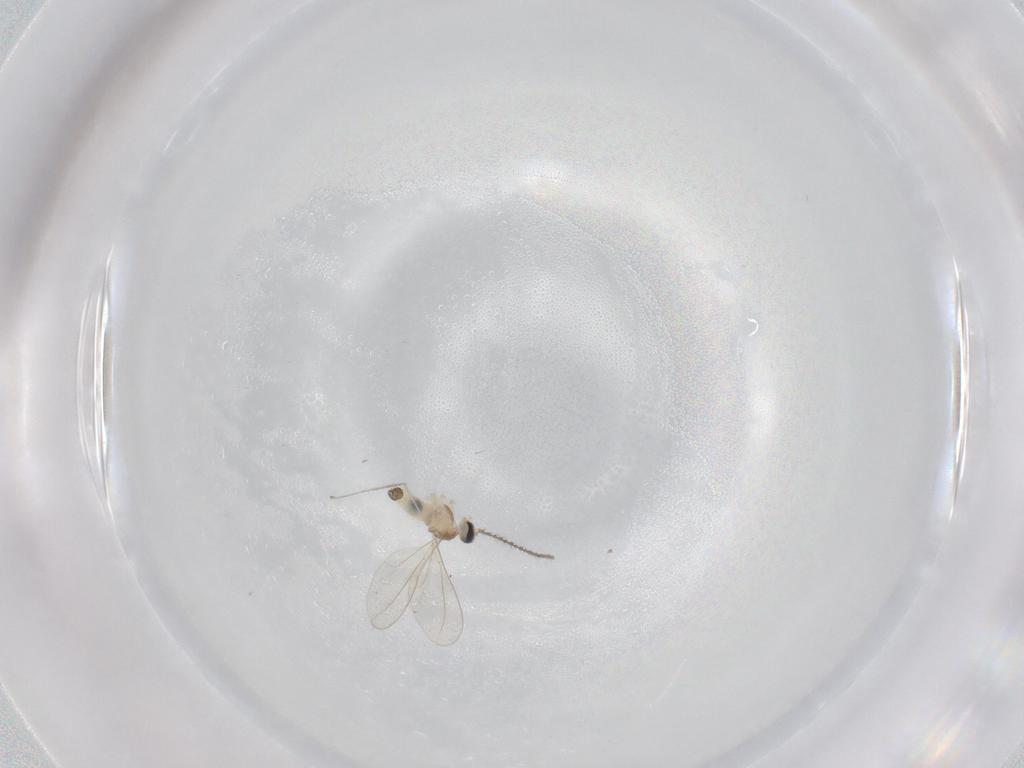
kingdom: Animalia
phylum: Arthropoda
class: Insecta
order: Diptera
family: Cecidomyiidae
